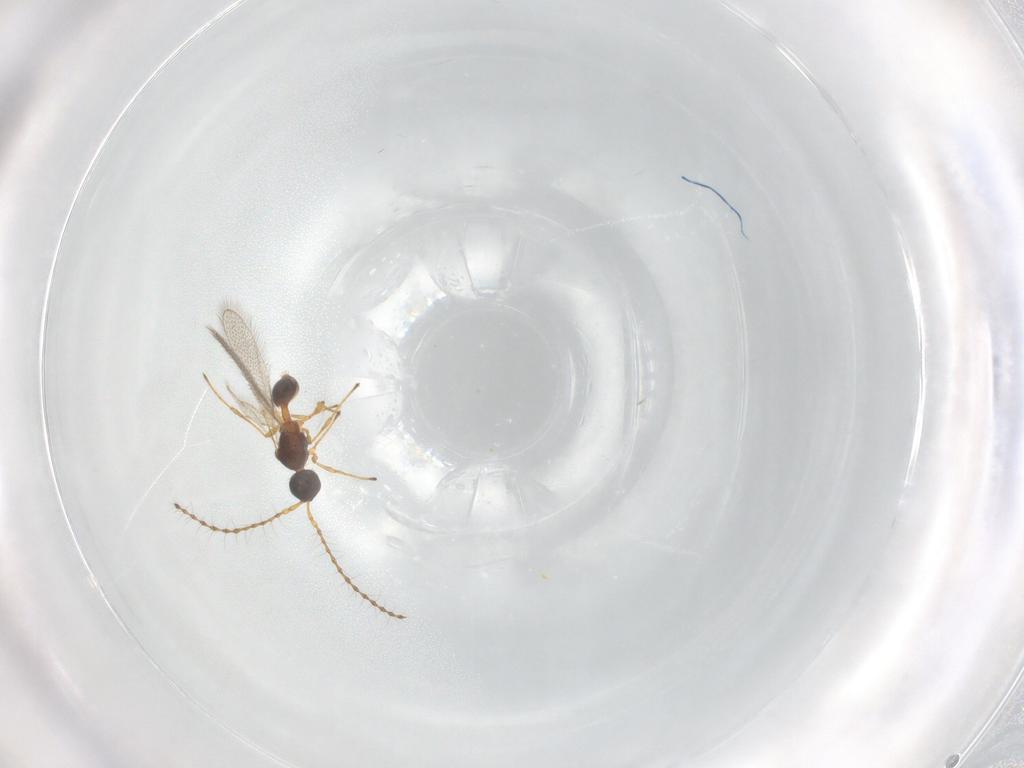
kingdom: Animalia
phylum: Arthropoda
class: Insecta
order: Hymenoptera
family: Diapriidae
